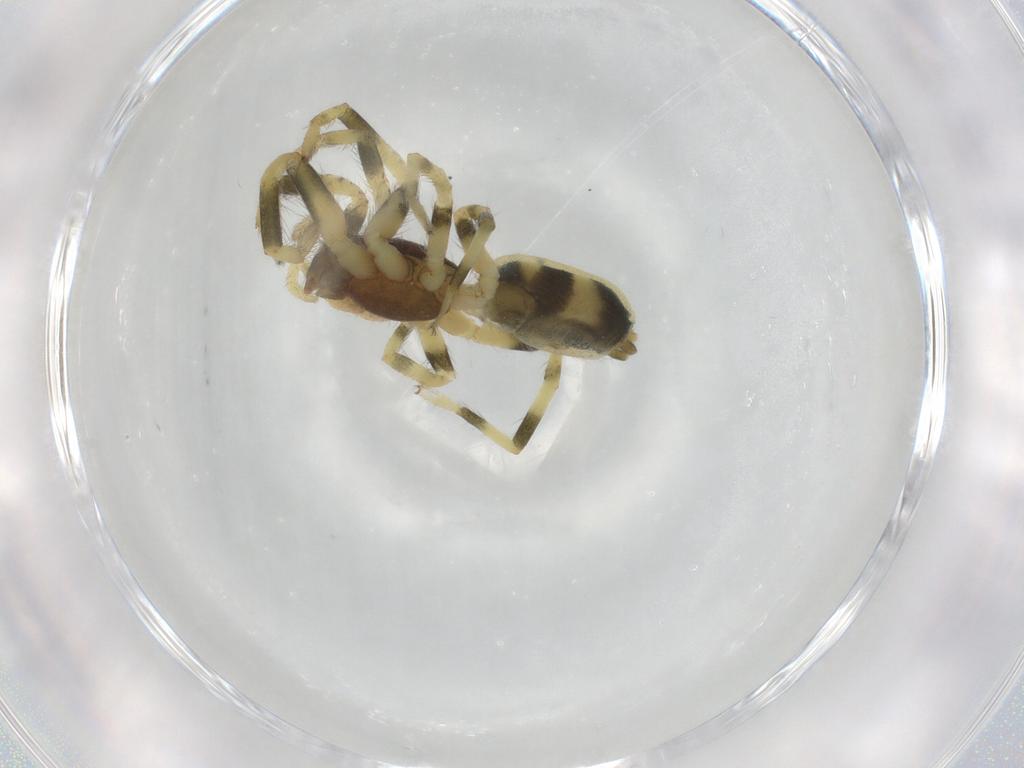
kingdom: Animalia
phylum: Arthropoda
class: Arachnida
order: Araneae
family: Lamponidae
